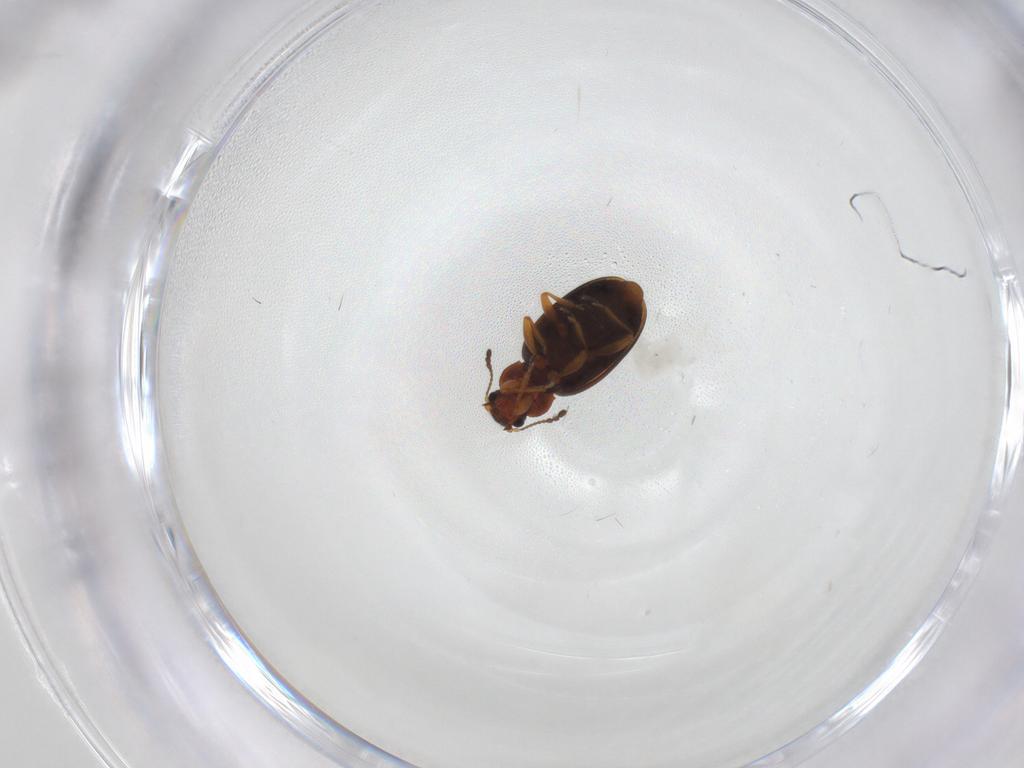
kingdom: Animalia
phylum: Arthropoda
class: Insecta
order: Coleoptera
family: Latridiidae
